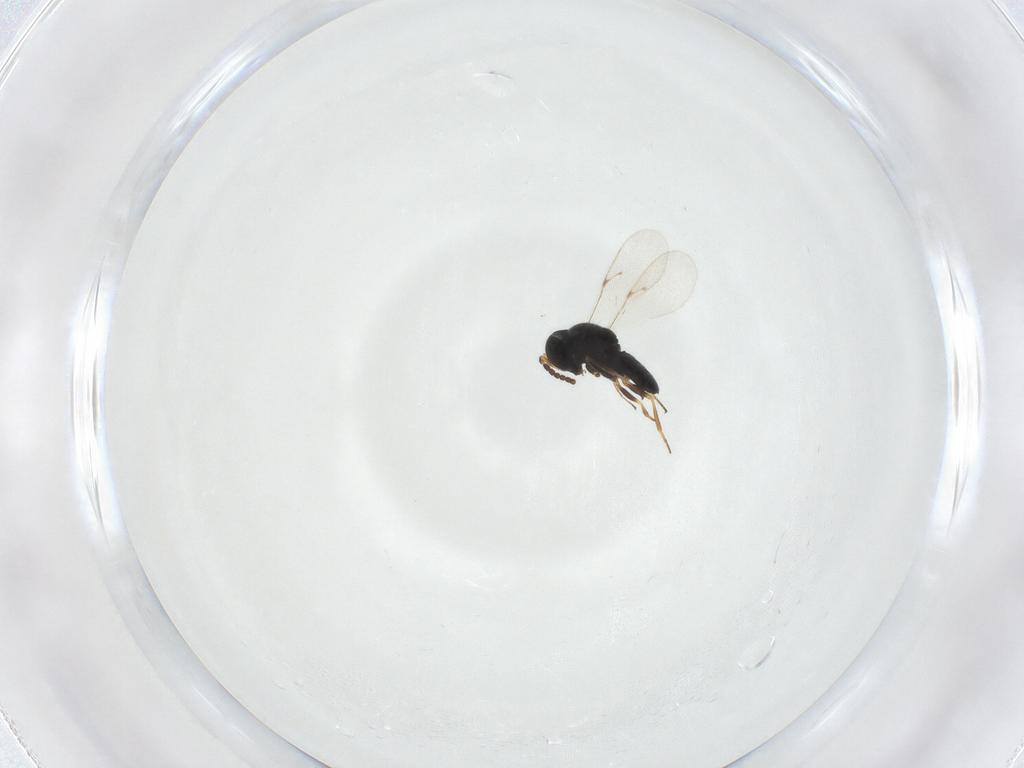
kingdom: Animalia
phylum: Arthropoda
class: Insecta
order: Hymenoptera
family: Scelionidae
